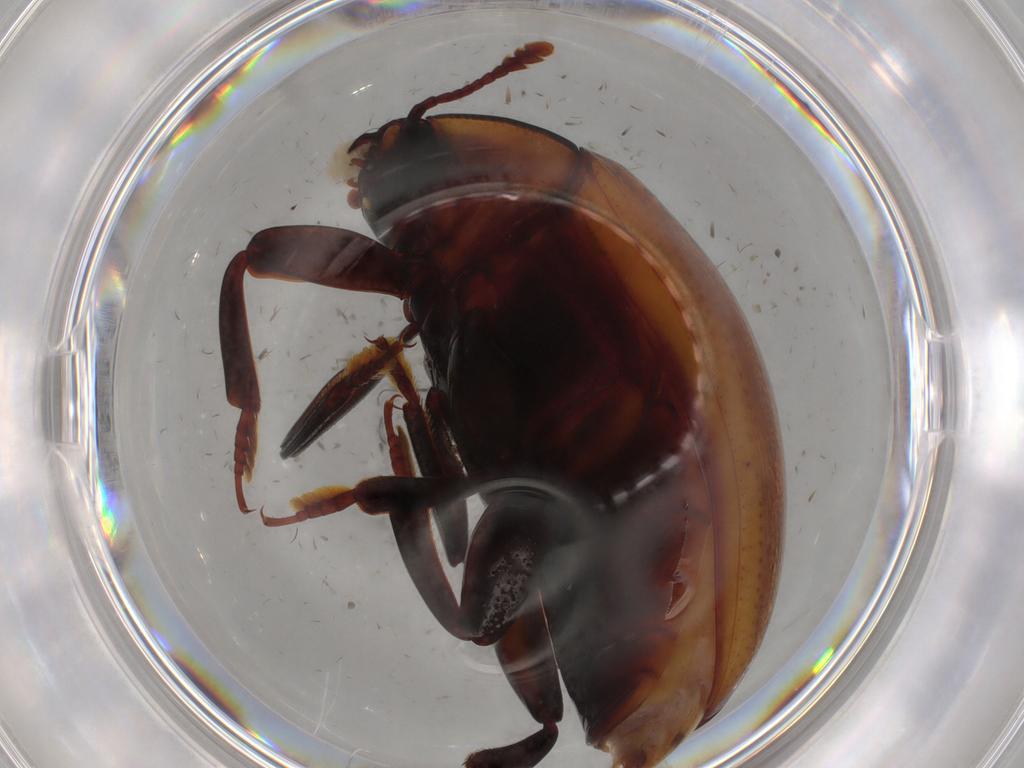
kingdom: Animalia
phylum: Arthropoda
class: Insecta
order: Coleoptera
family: Zopheridae
